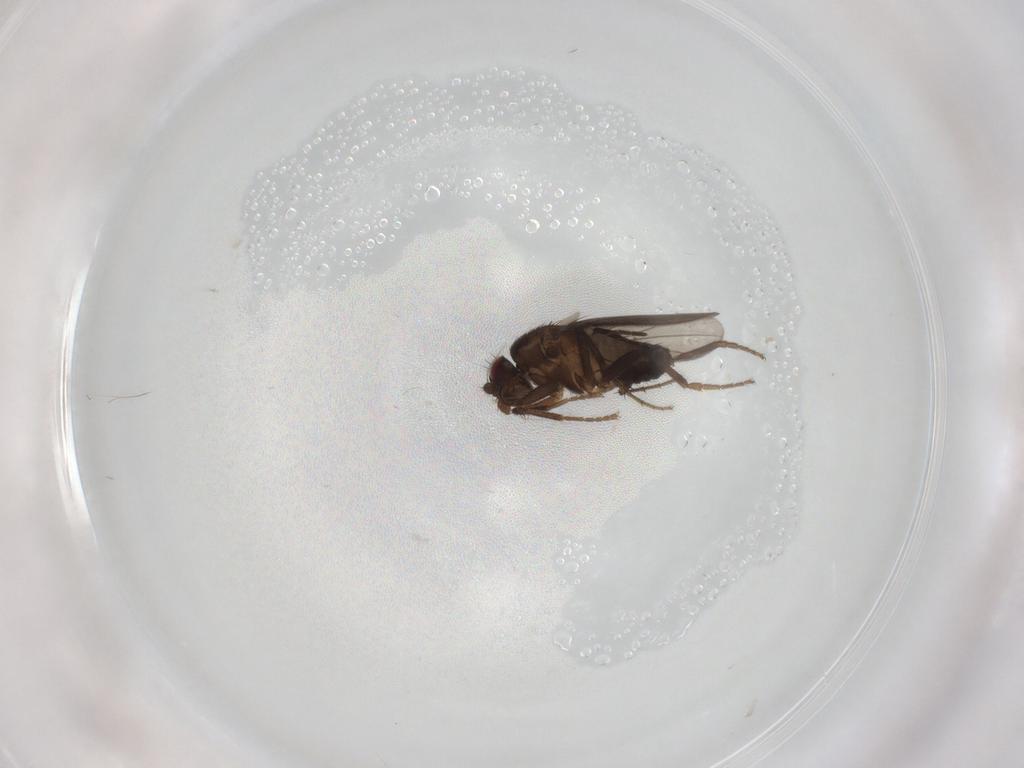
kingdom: Animalia
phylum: Arthropoda
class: Insecta
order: Diptera
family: Sphaeroceridae
